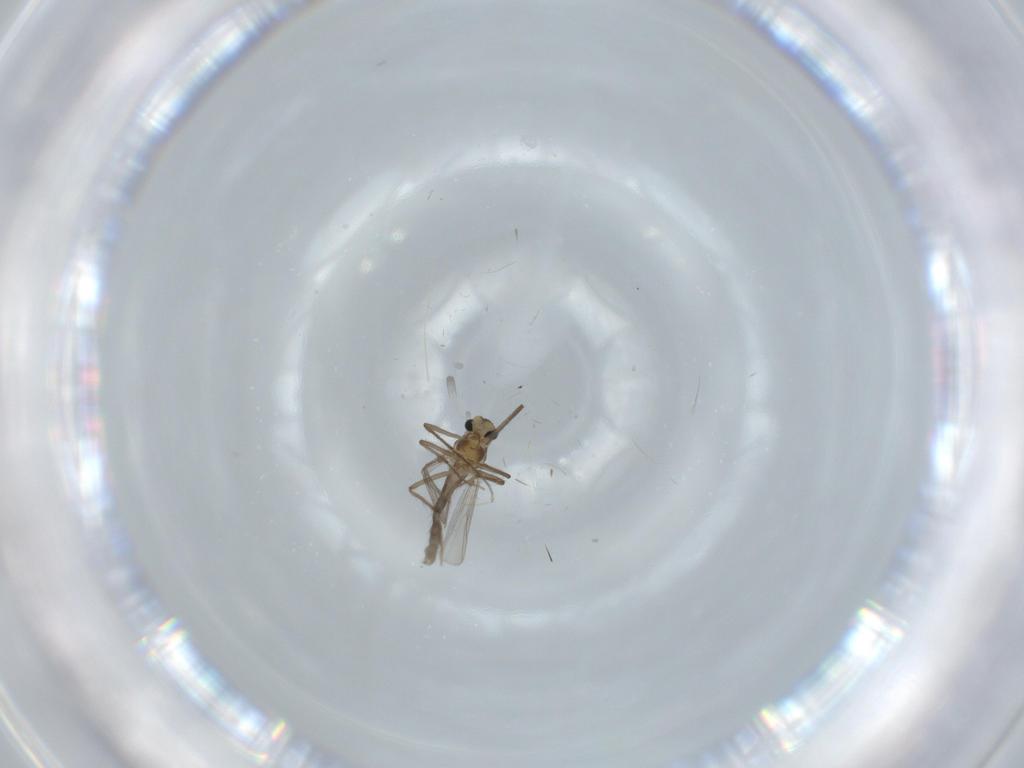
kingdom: Animalia
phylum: Arthropoda
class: Insecta
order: Diptera
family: Chironomidae
